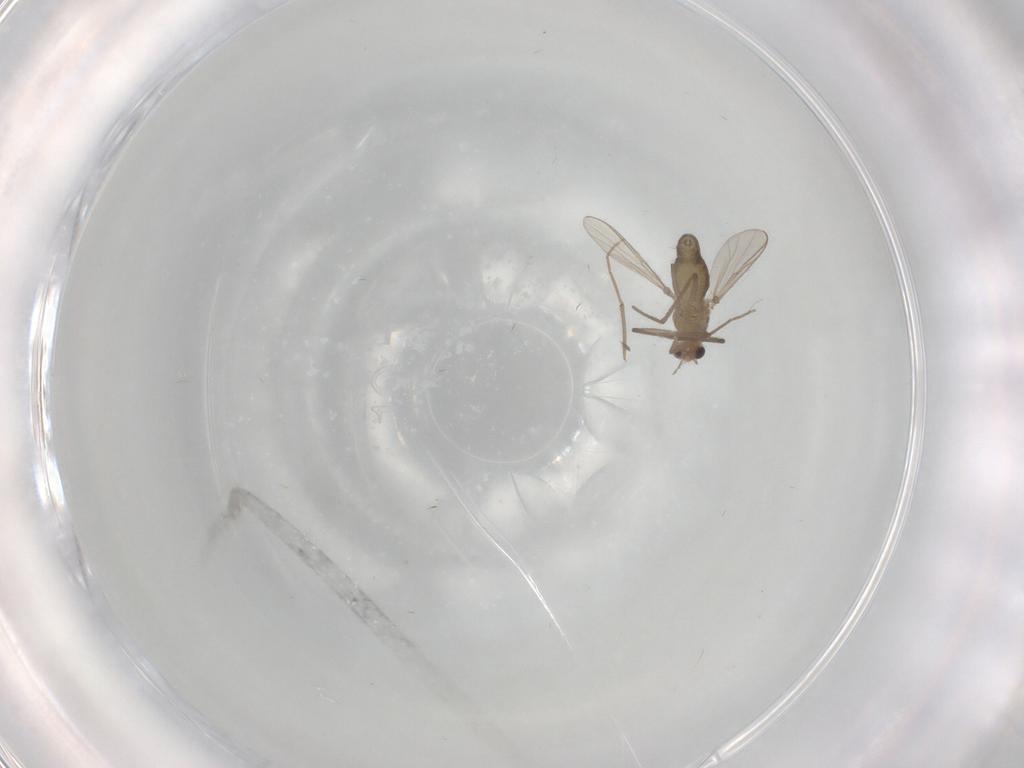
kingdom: Animalia
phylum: Arthropoda
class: Insecta
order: Diptera
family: Chironomidae
